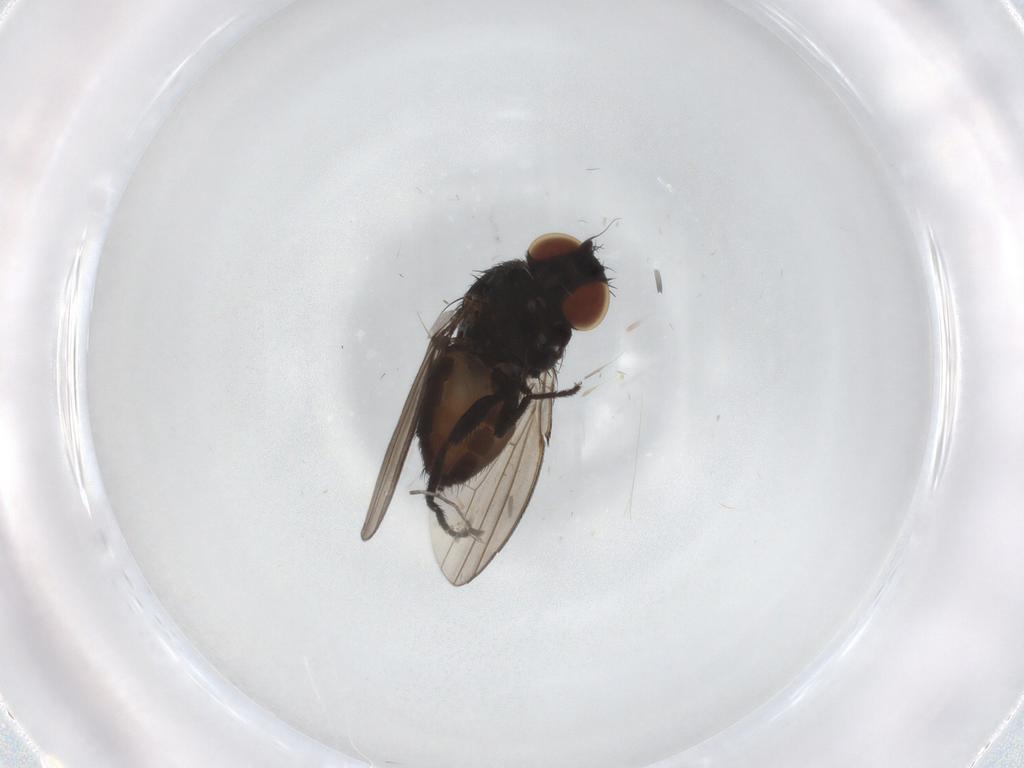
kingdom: Animalia
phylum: Arthropoda
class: Insecta
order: Diptera
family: Milichiidae
